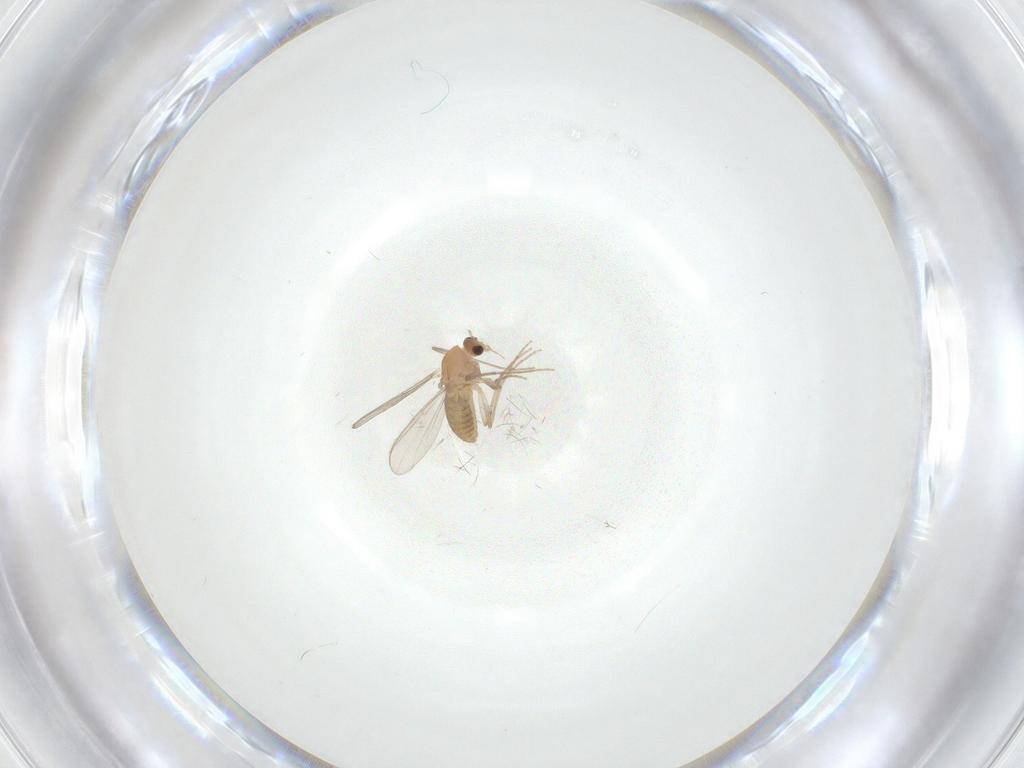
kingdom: Animalia
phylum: Arthropoda
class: Insecta
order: Diptera
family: Chironomidae
